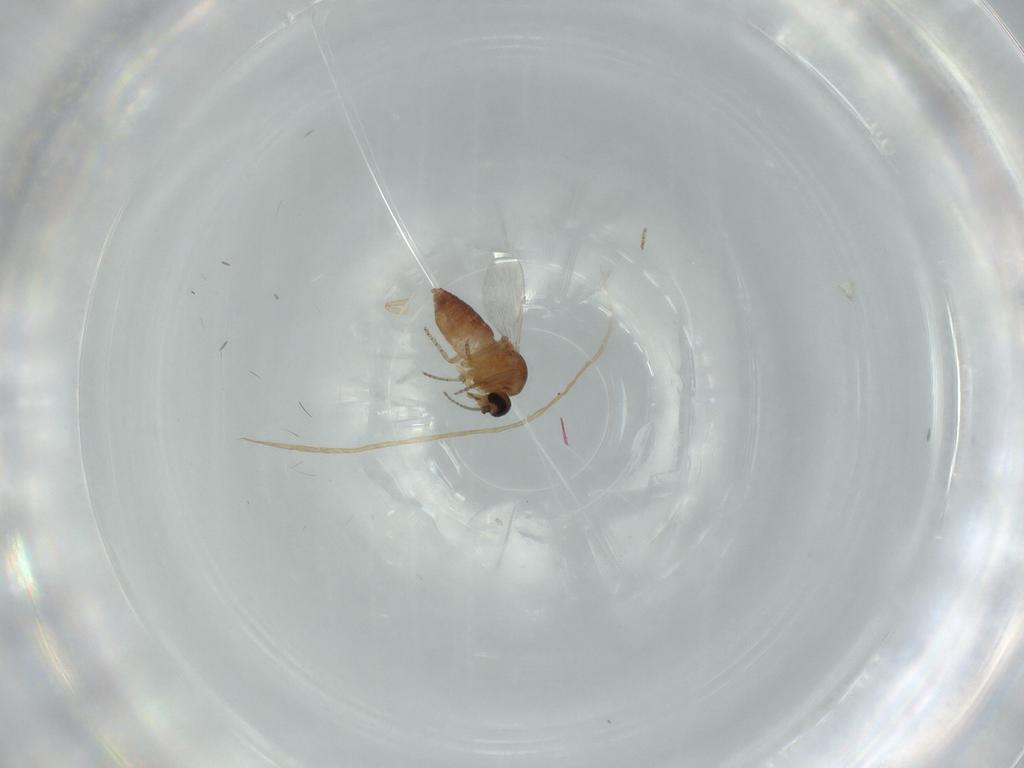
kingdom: Animalia
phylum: Arthropoda
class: Insecta
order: Diptera
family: Ceratopogonidae
